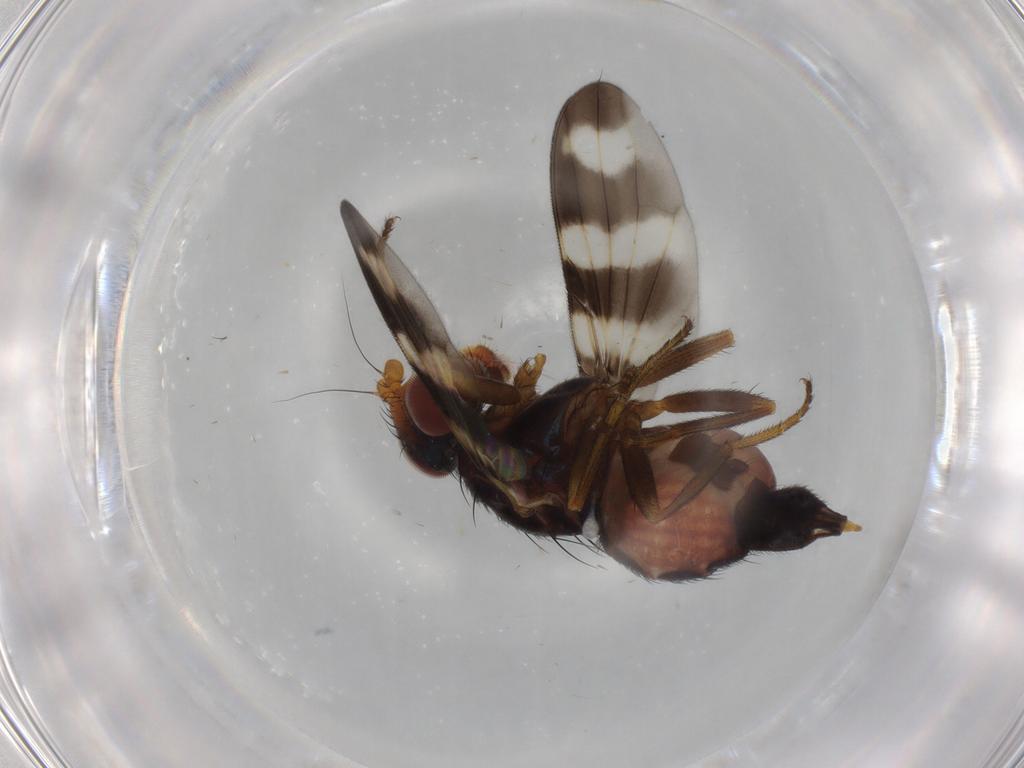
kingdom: Animalia
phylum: Arthropoda
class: Insecta
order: Diptera
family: Ulidiidae
